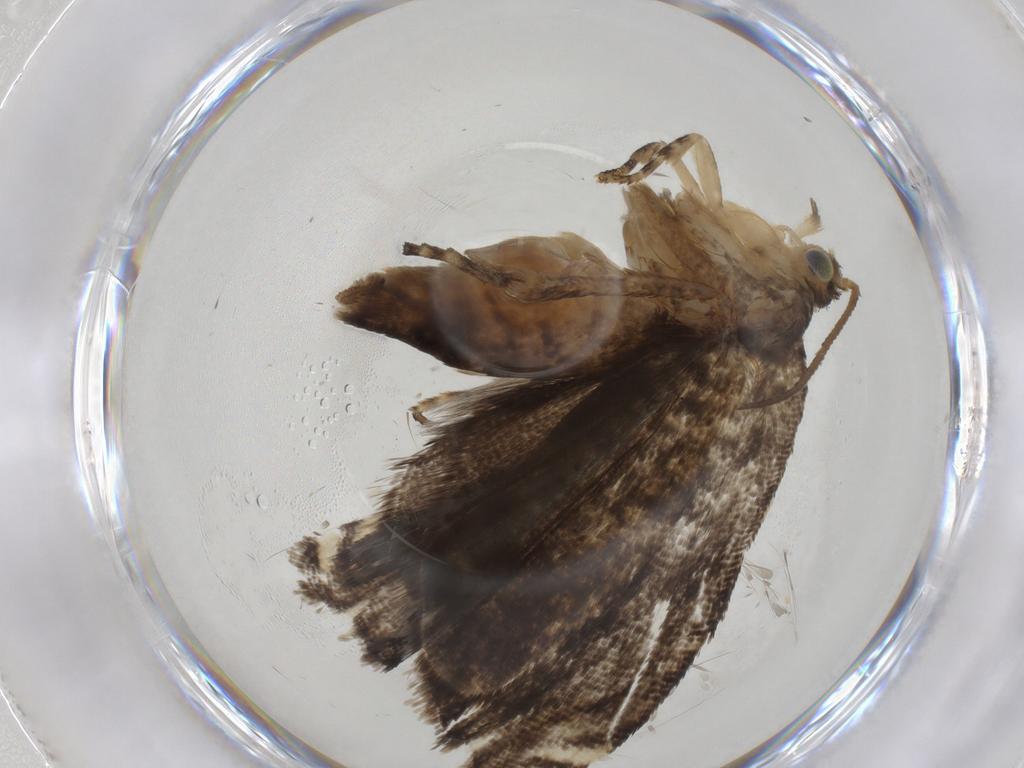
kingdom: Animalia
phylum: Arthropoda
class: Insecta
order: Lepidoptera
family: Tortricidae
